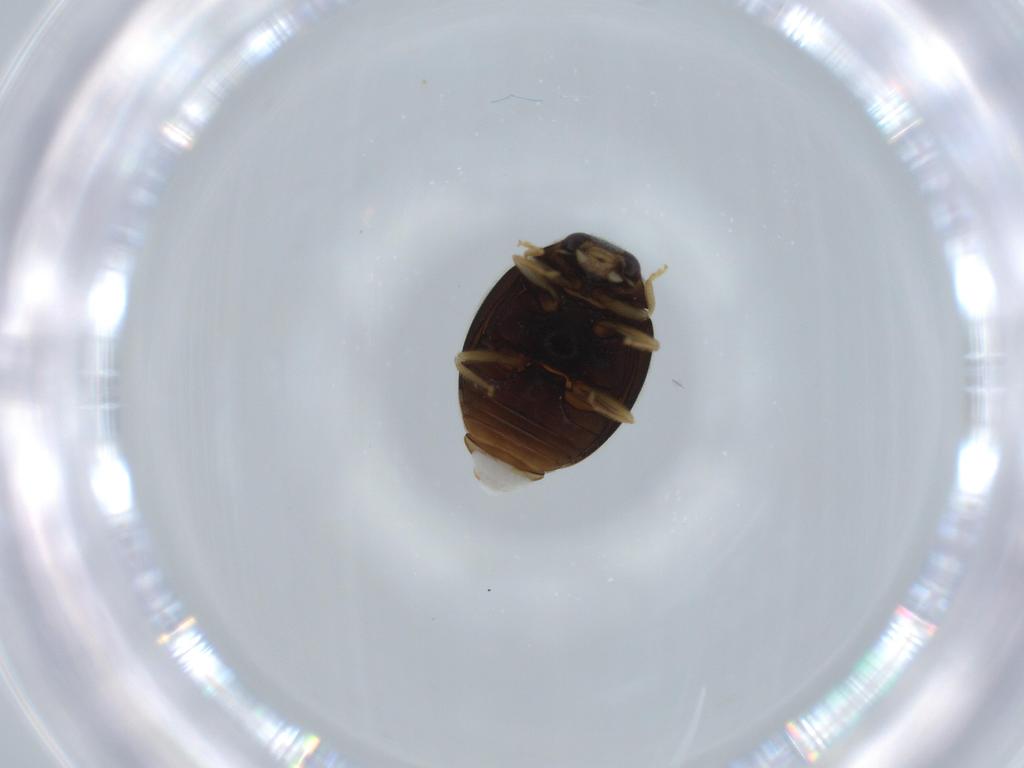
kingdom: Animalia
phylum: Arthropoda
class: Insecta
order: Coleoptera
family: Coccinellidae
